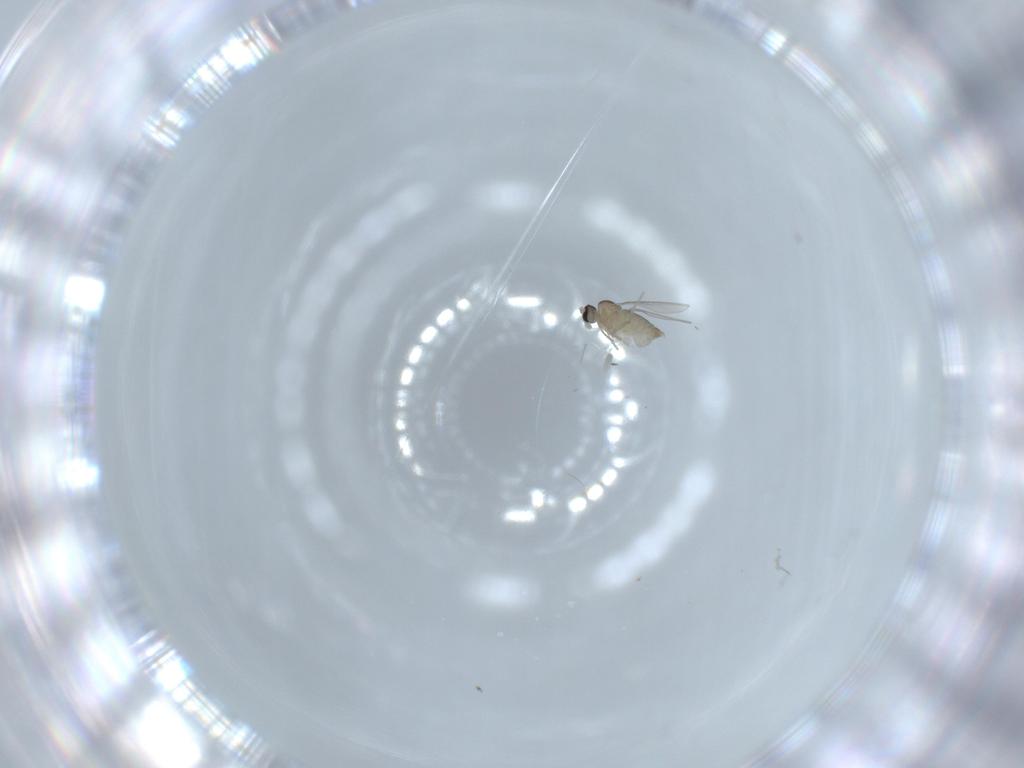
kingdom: Animalia
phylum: Arthropoda
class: Insecta
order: Diptera
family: Cecidomyiidae
